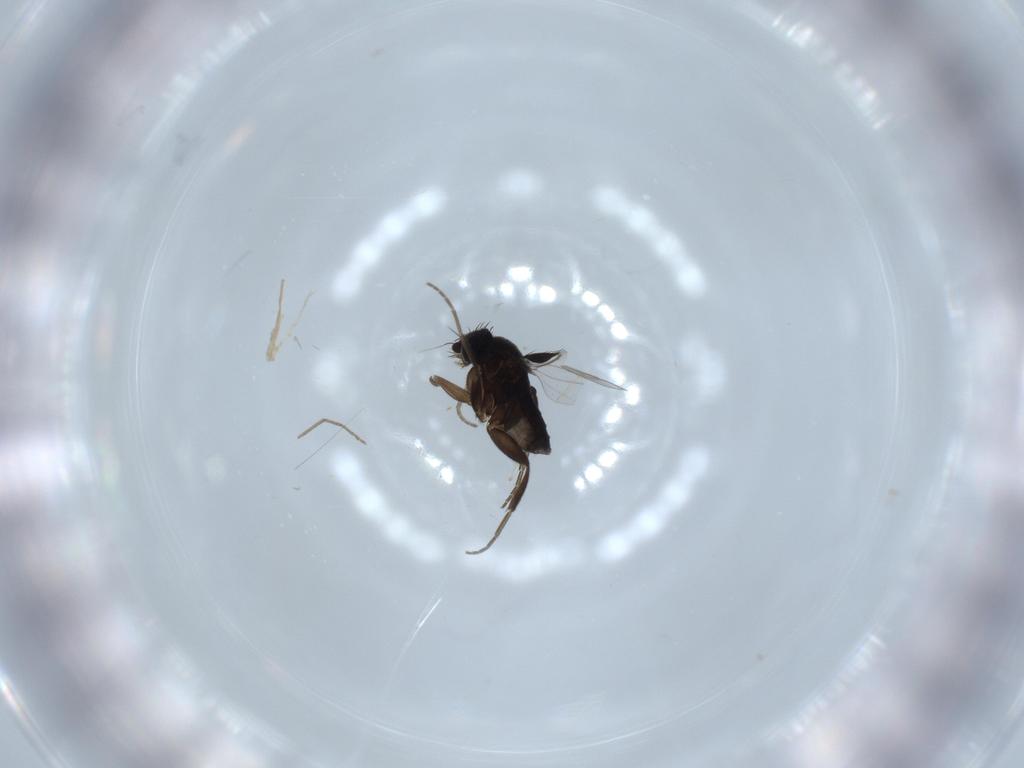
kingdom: Animalia
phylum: Arthropoda
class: Insecta
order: Diptera
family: Phoridae
